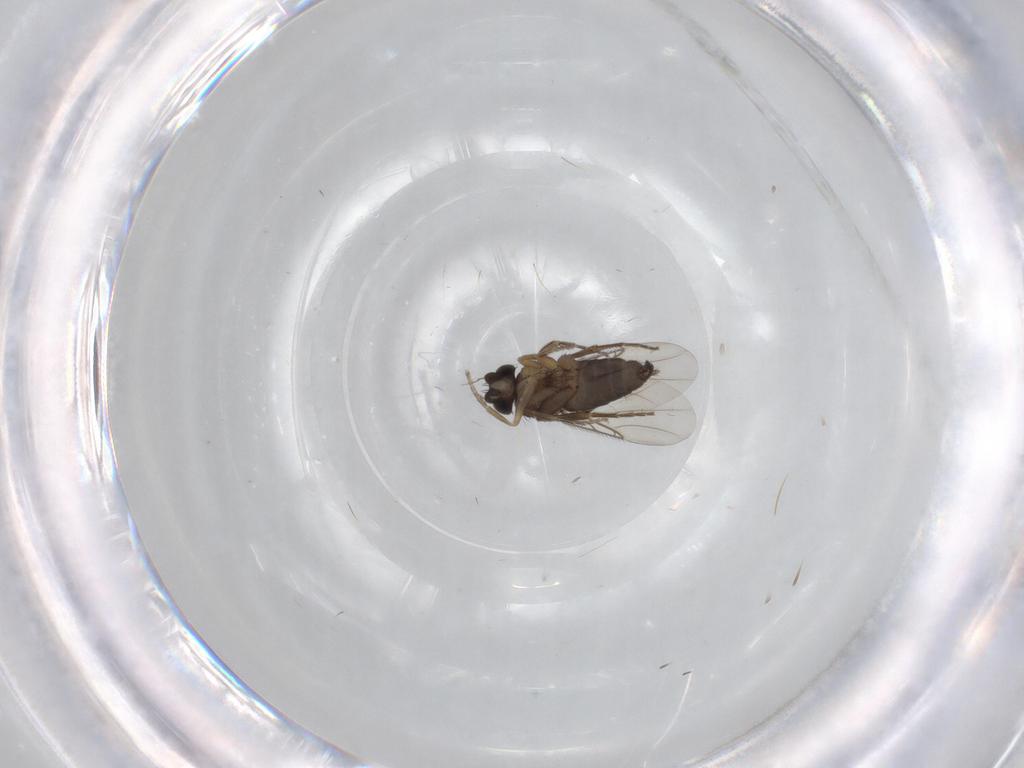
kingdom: Animalia
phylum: Arthropoda
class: Insecta
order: Diptera
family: Phoridae
